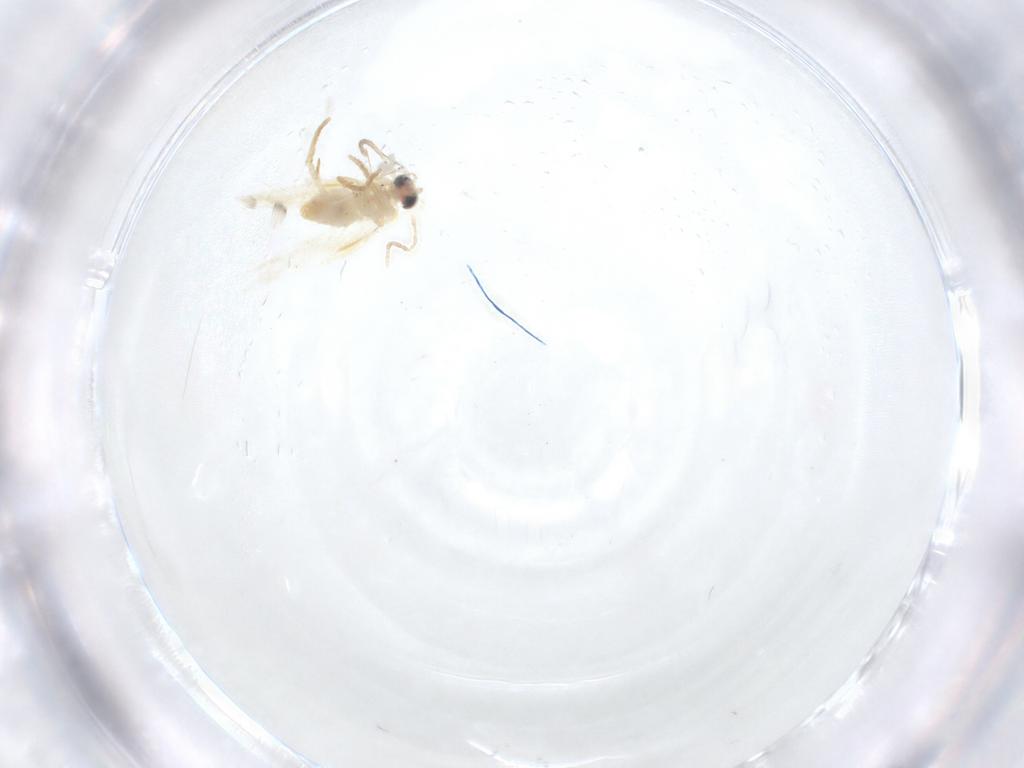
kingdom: Animalia
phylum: Arthropoda
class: Insecta
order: Lepidoptera
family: Nepticulidae
